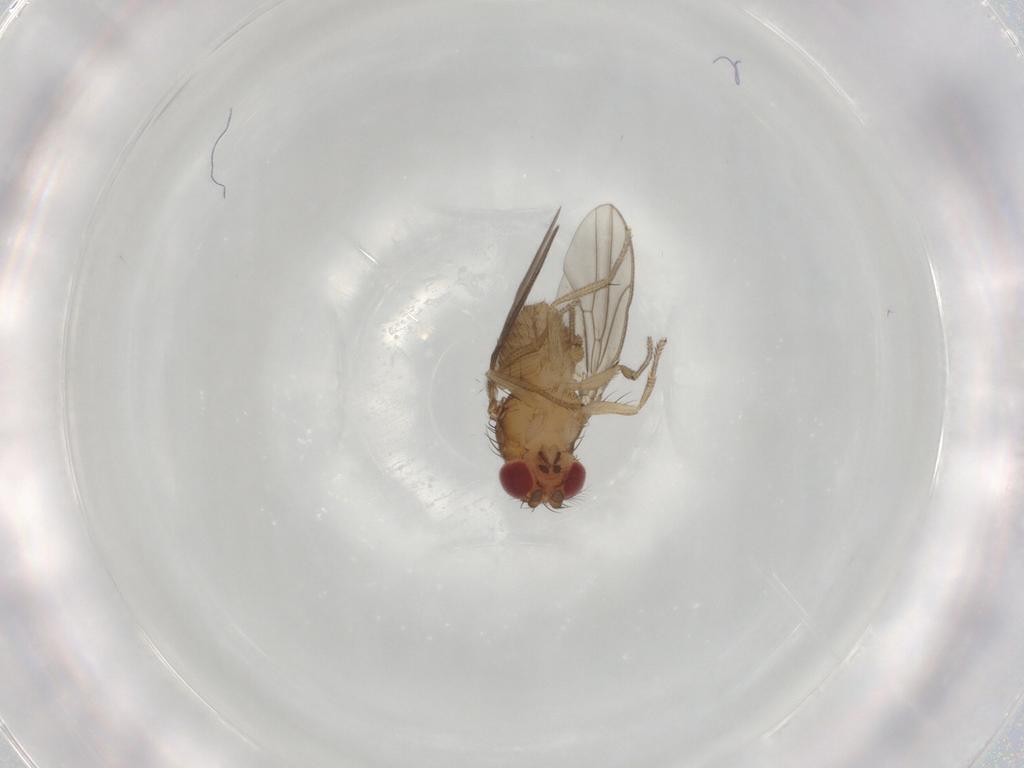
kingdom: Animalia
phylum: Arthropoda
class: Insecta
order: Diptera
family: Drosophilidae
